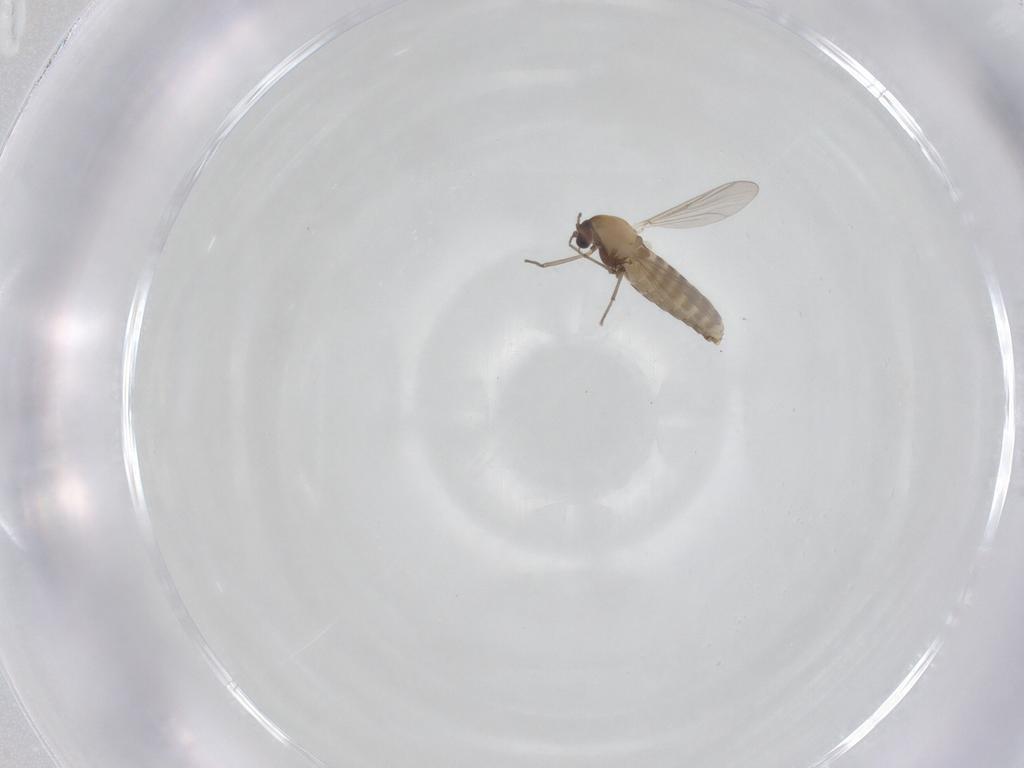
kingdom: Animalia
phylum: Arthropoda
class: Insecta
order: Diptera
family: Chironomidae
